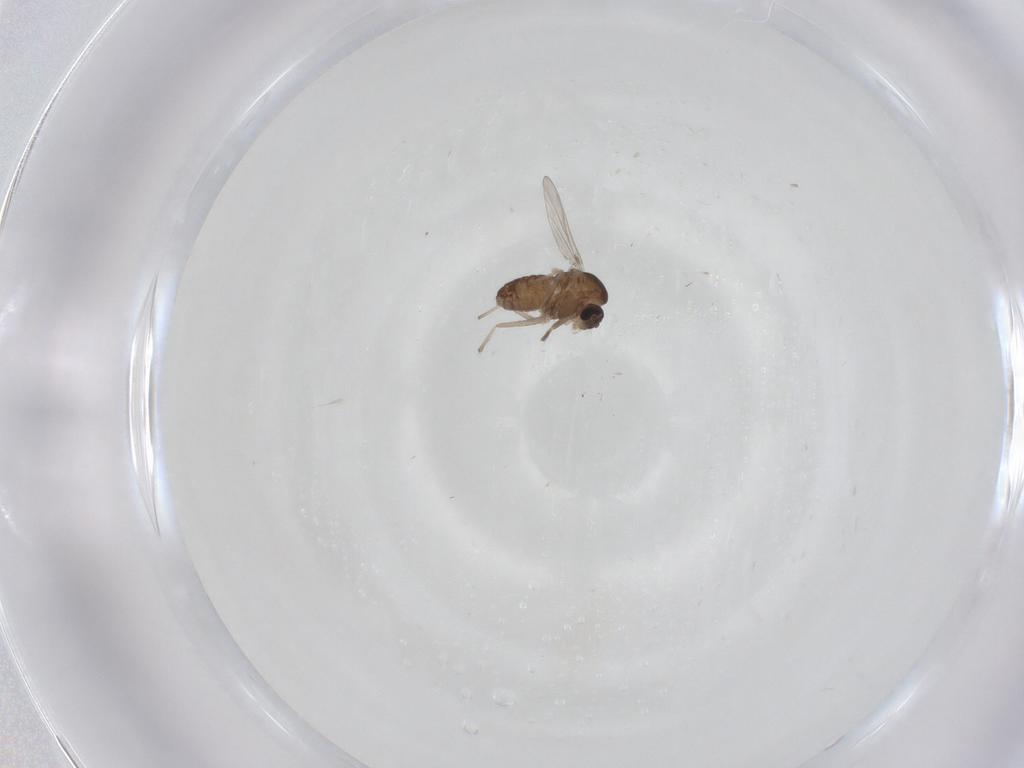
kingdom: Animalia
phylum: Arthropoda
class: Insecta
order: Diptera
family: Chironomidae
